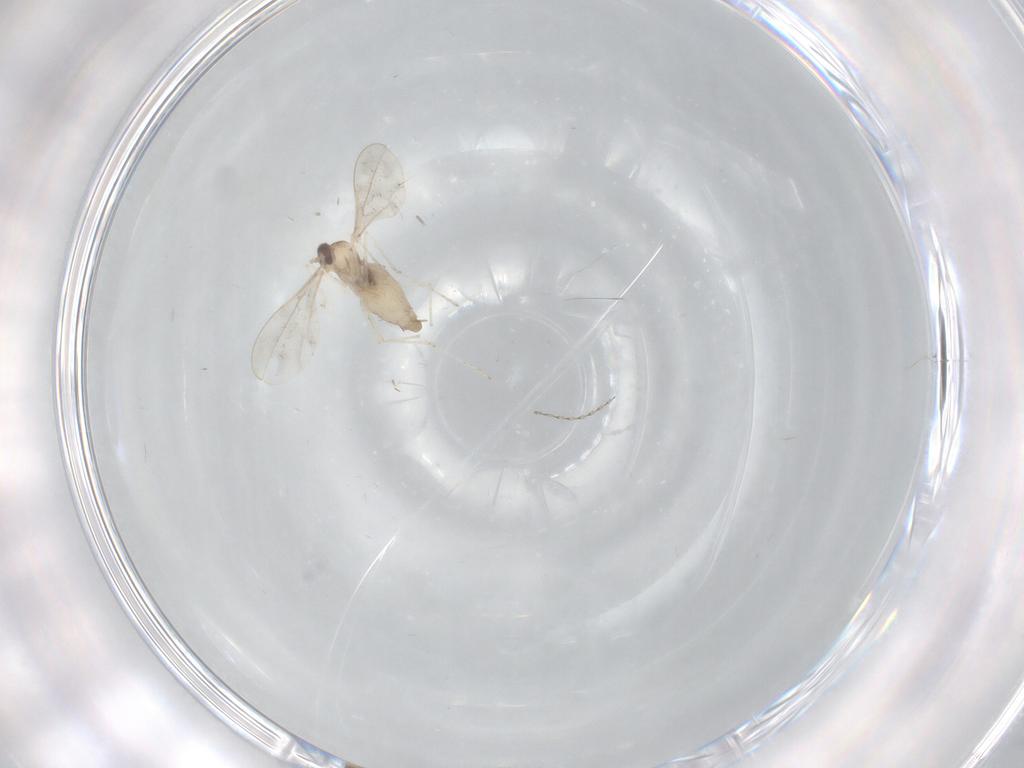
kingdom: Animalia
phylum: Arthropoda
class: Insecta
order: Diptera
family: Cecidomyiidae
